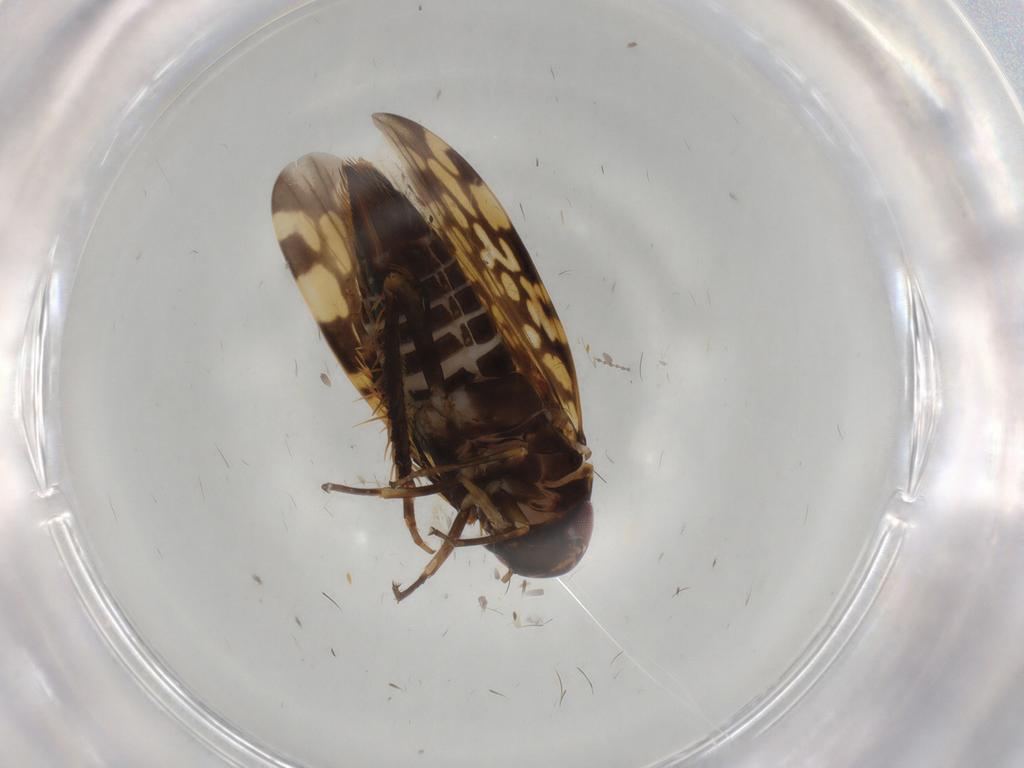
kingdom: Animalia
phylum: Arthropoda
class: Insecta
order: Hemiptera
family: Cicadellidae
